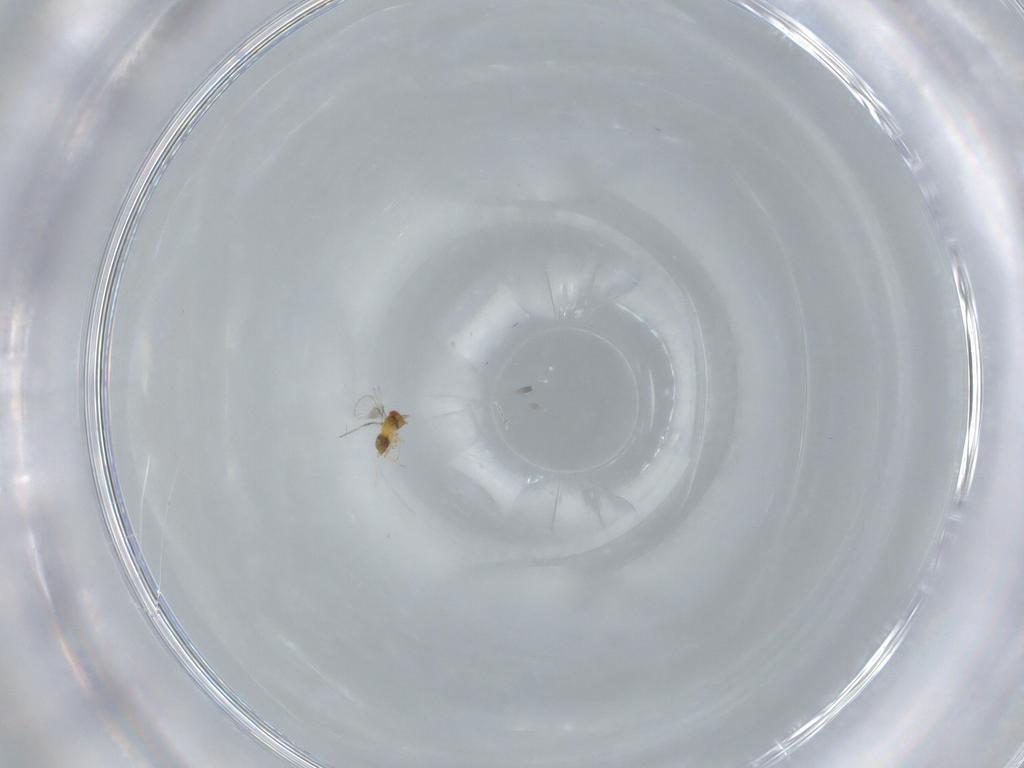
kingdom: Animalia
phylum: Arthropoda
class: Insecta
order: Hymenoptera
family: Trichogrammatidae
